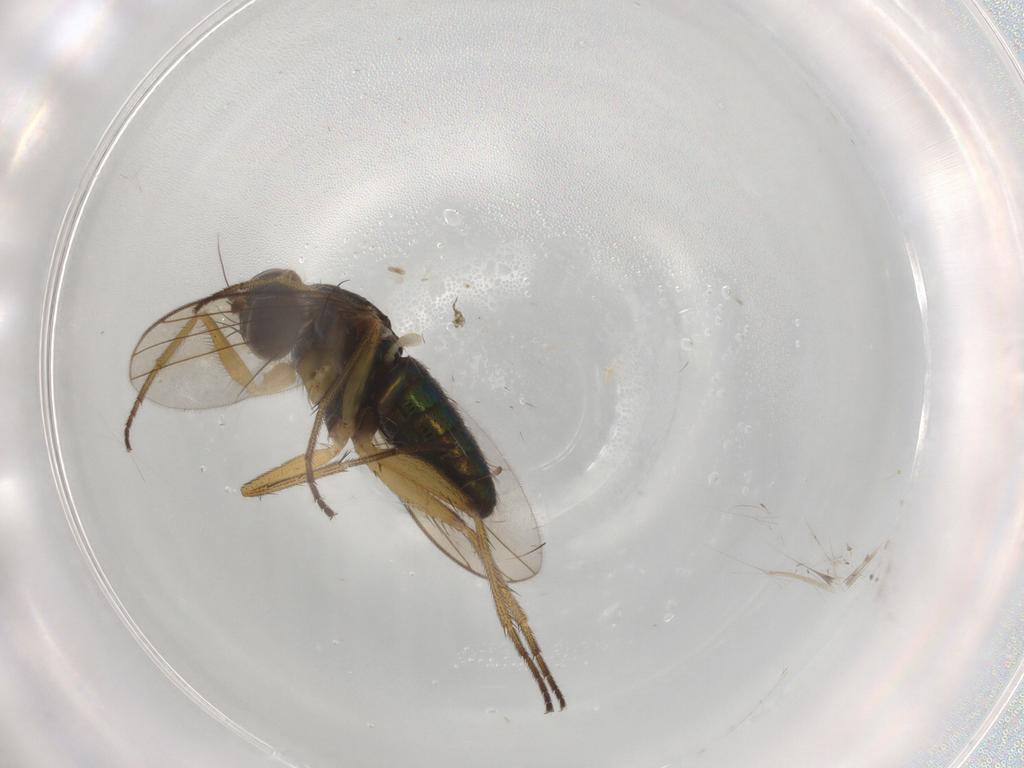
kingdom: Animalia
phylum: Arthropoda
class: Insecta
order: Diptera
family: Dolichopodidae
